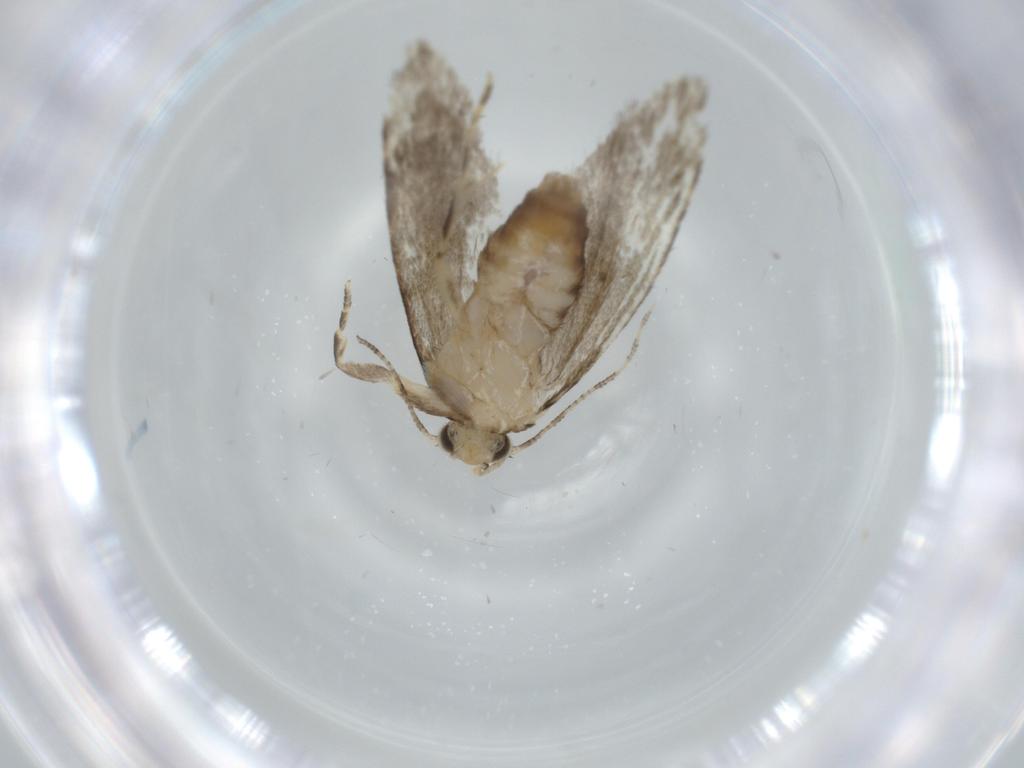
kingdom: Animalia
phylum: Arthropoda
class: Insecta
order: Lepidoptera
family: Tineidae
